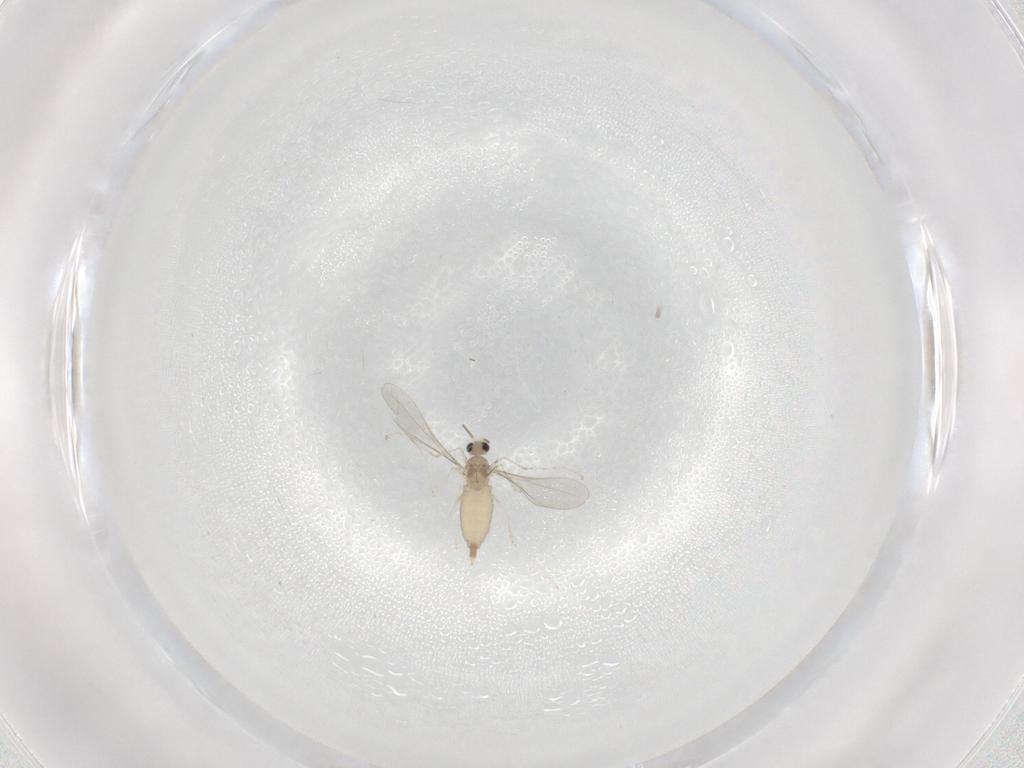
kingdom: Animalia
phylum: Arthropoda
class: Insecta
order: Diptera
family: Cecidomyiidae
